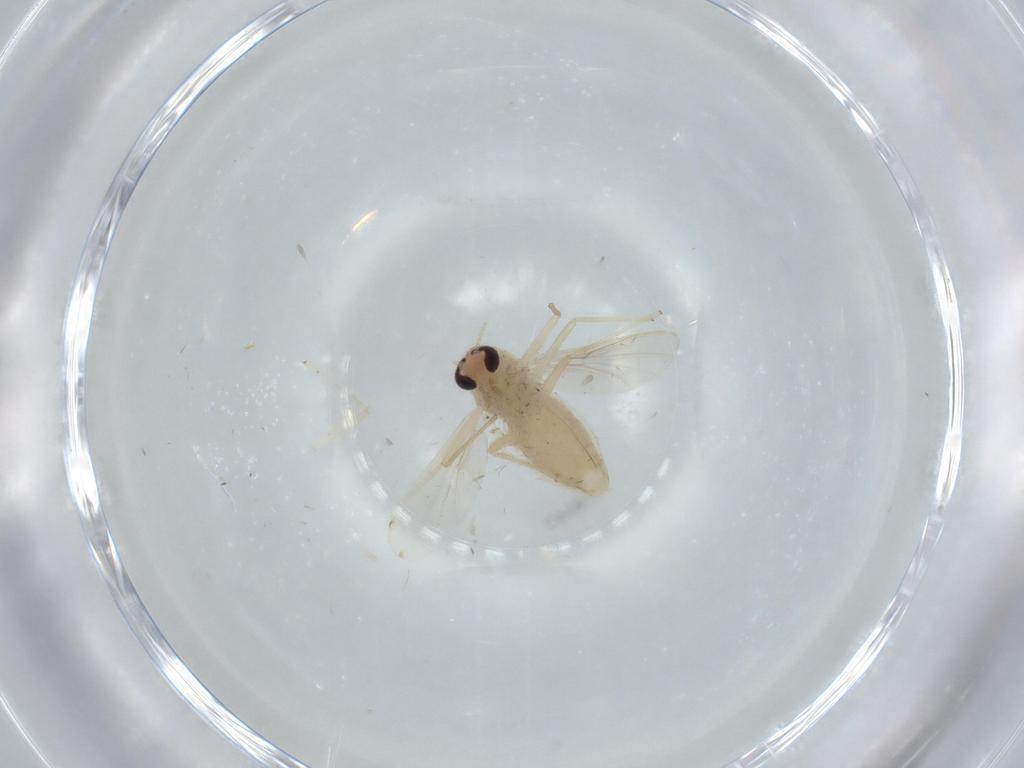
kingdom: Animalia
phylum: Arthropoda
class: Insecta
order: Diptera
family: Chironomidae
